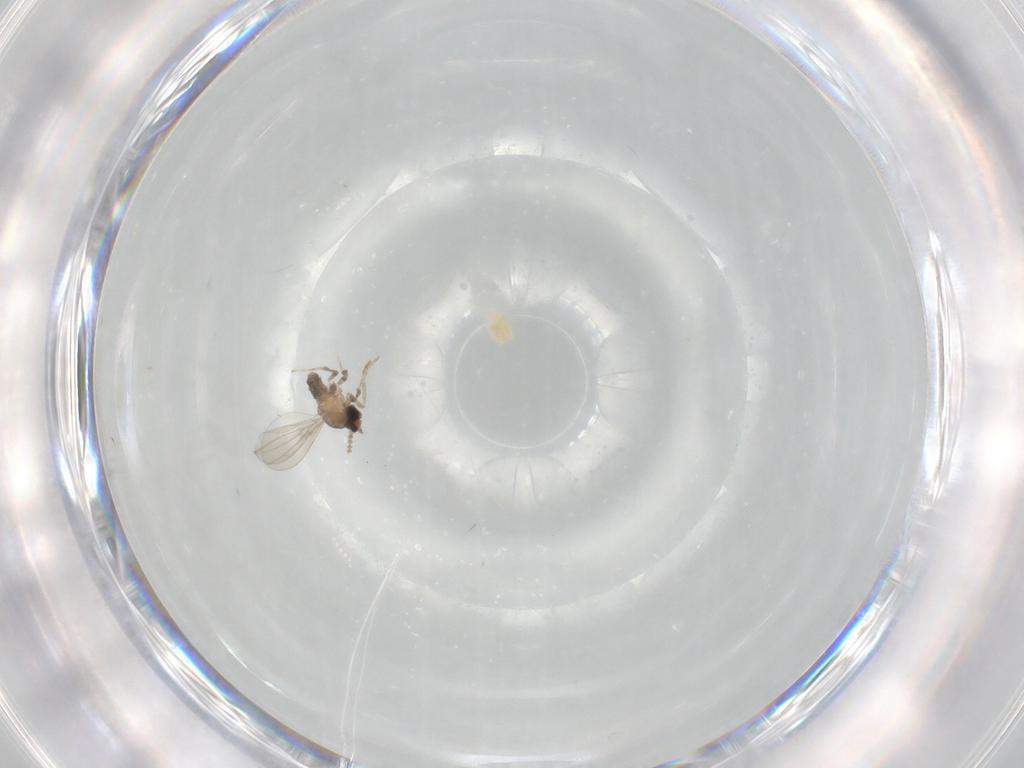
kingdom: Animalia
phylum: Arthropoda
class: Insecta
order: Diptera
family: Cecidomyiidae
